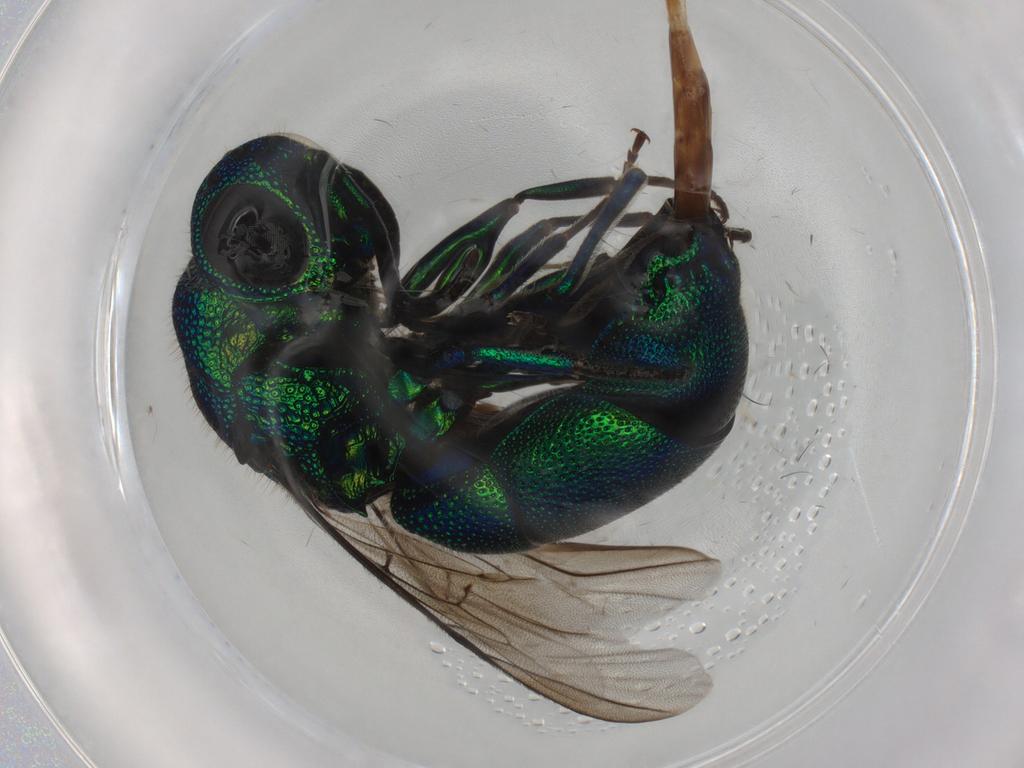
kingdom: Animalia
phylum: Arthropoda
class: Insecta
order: Hymenoptera
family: Chrysididae
